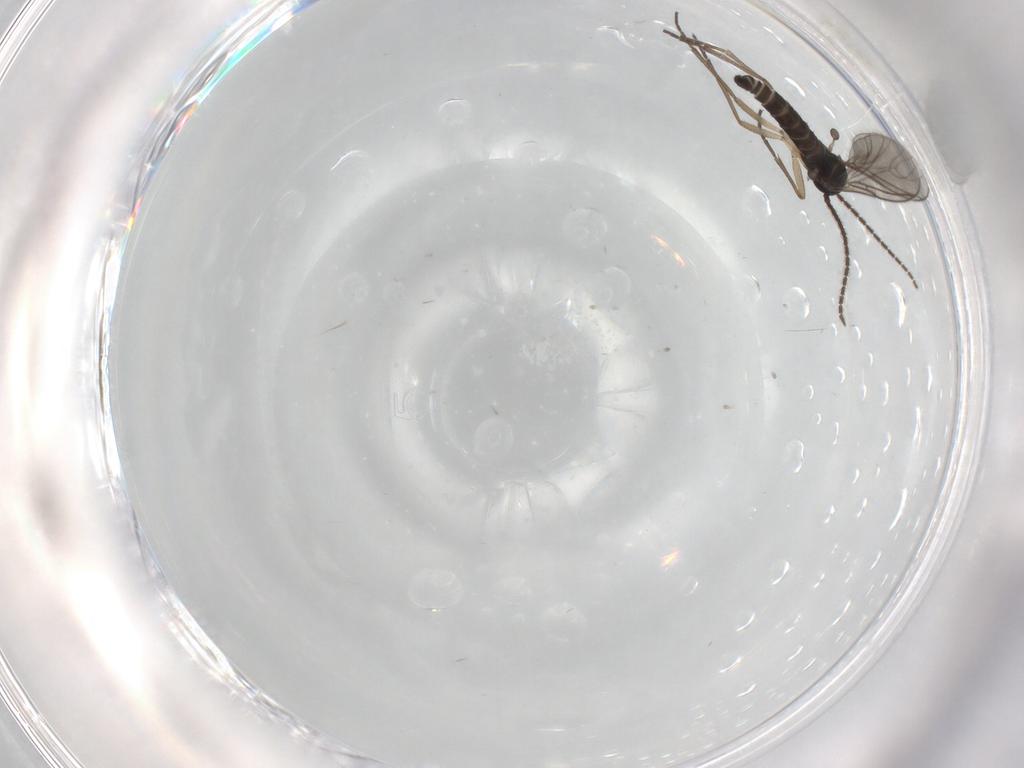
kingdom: Animalia
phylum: Arthropoda
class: Insecta
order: Diptera
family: Sciaridae
